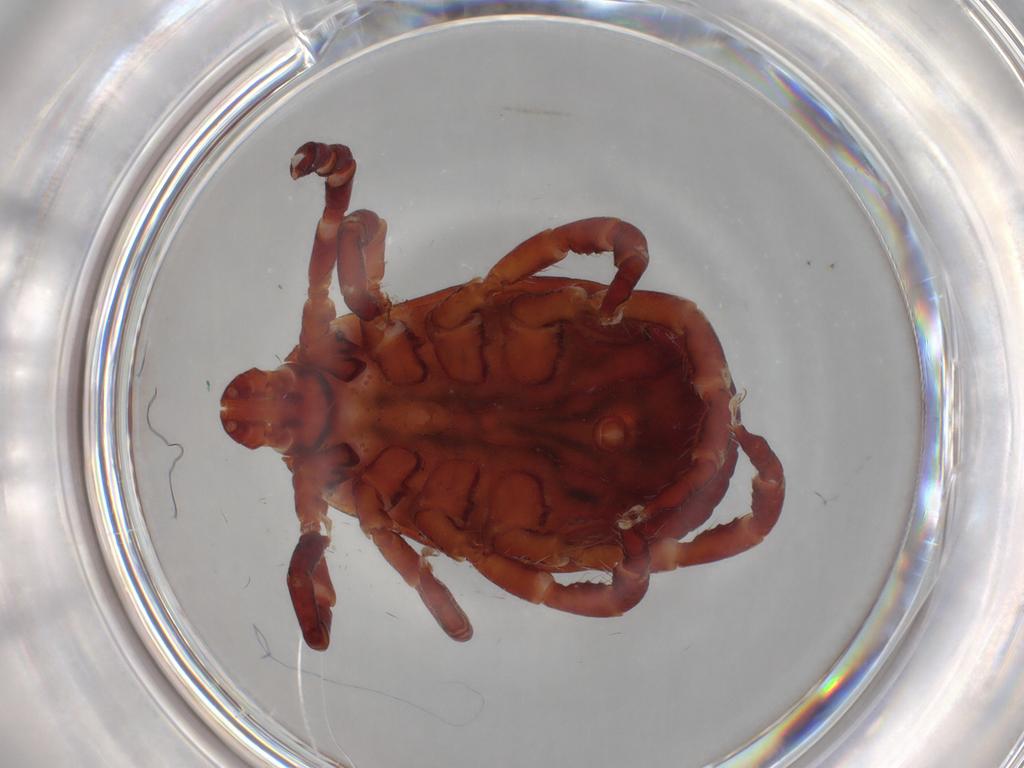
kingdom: Animalia
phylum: Arthropoda
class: Arachnida
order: Ixodida
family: Ixodidae
